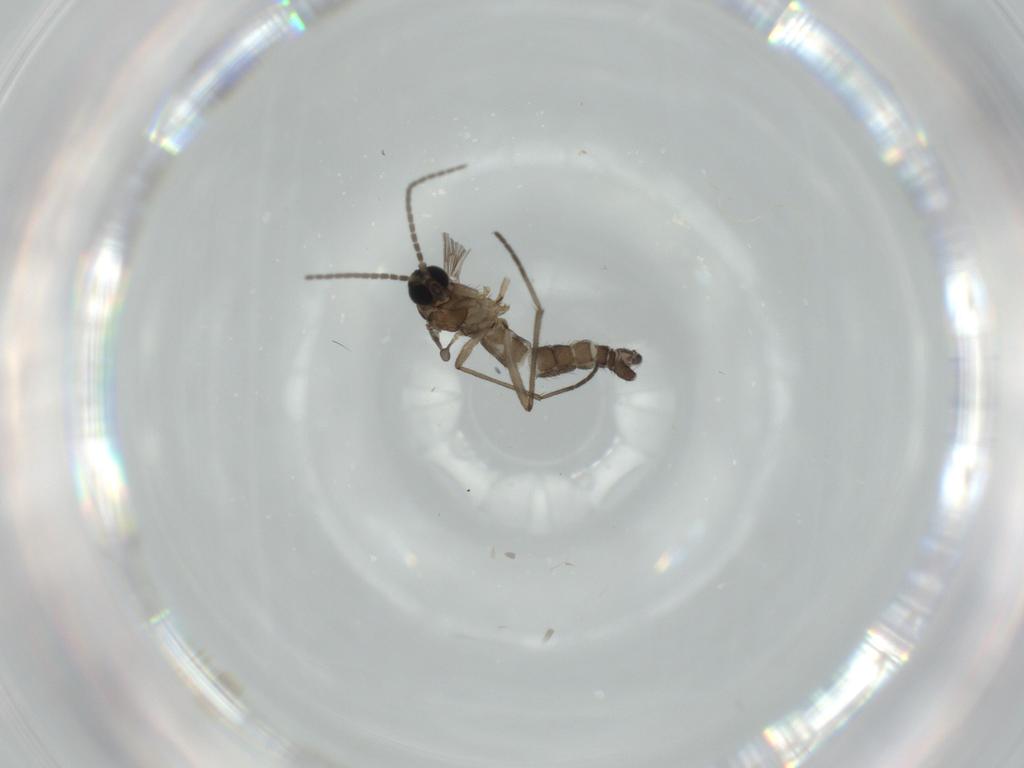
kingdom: Animalia
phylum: Arthropoda
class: Insecta
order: Diptera
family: Sciaridae
